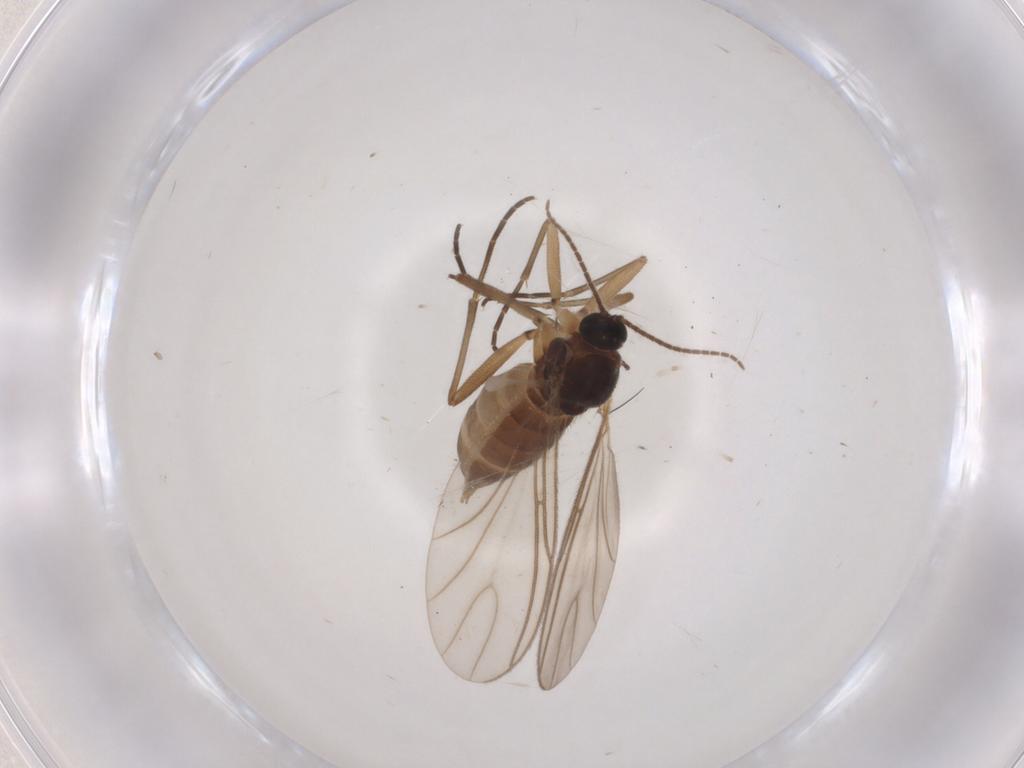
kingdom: Animalia
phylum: Arthropoda
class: Insecta
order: Diptera
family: Sciaridae
